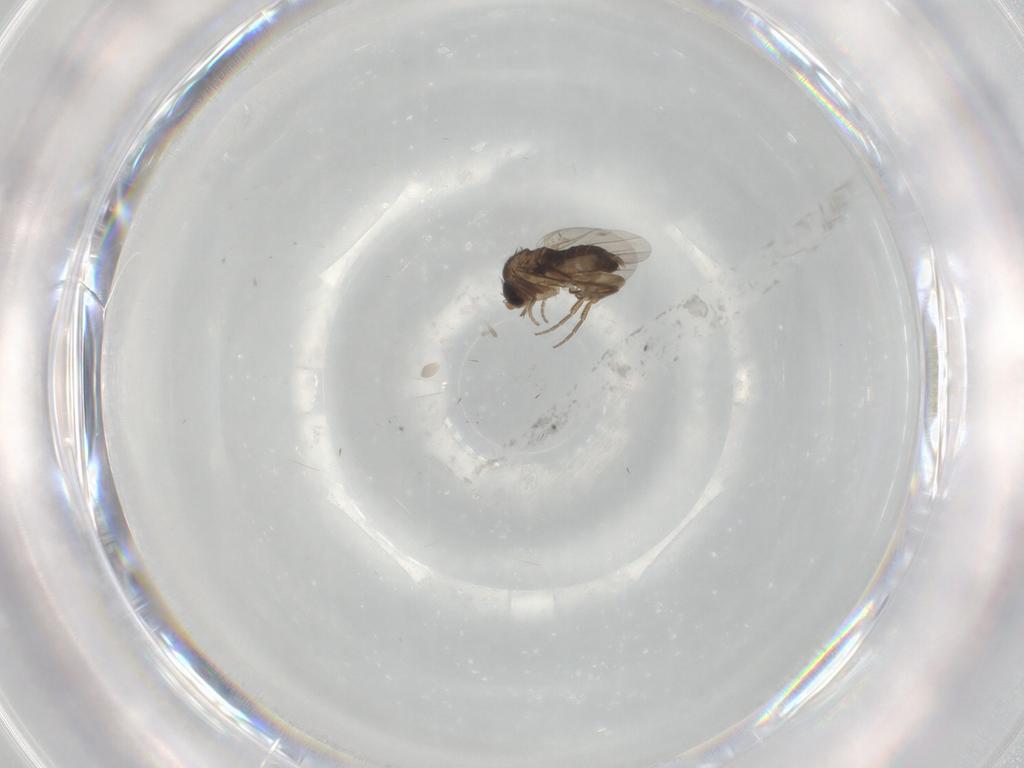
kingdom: Animalia
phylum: Arthropoda
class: Insecta
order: Diptera
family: Phoridae
